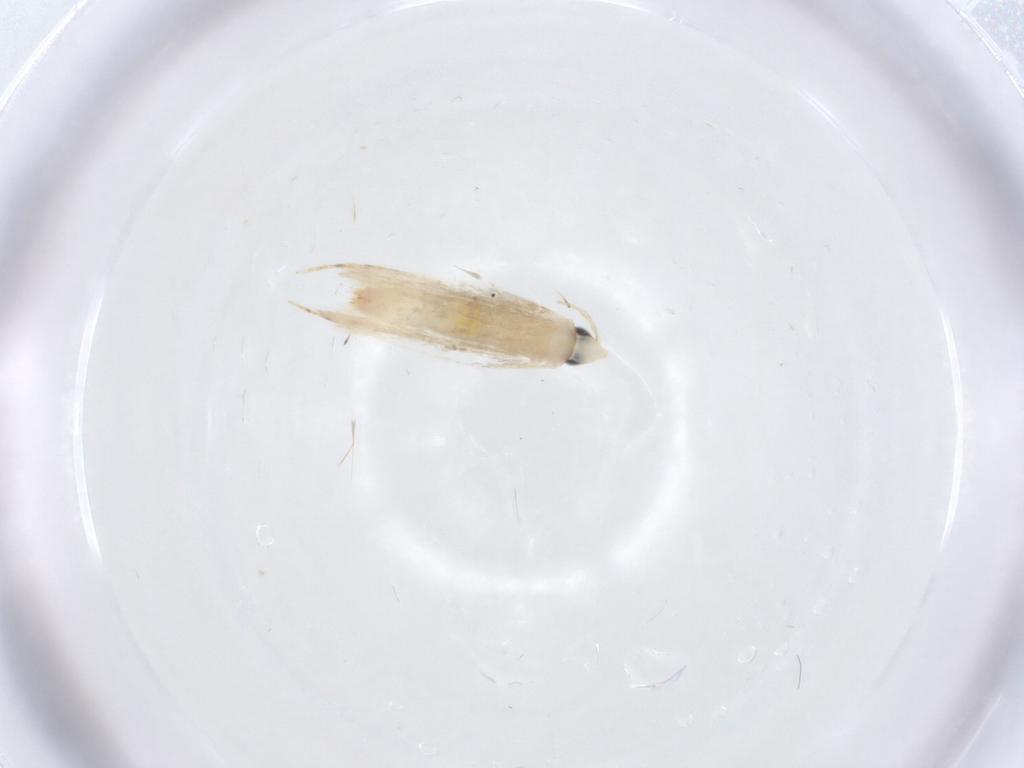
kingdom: Animalia
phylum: Arthropoda
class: Insecta
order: Lepidoptera
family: Tineidae
